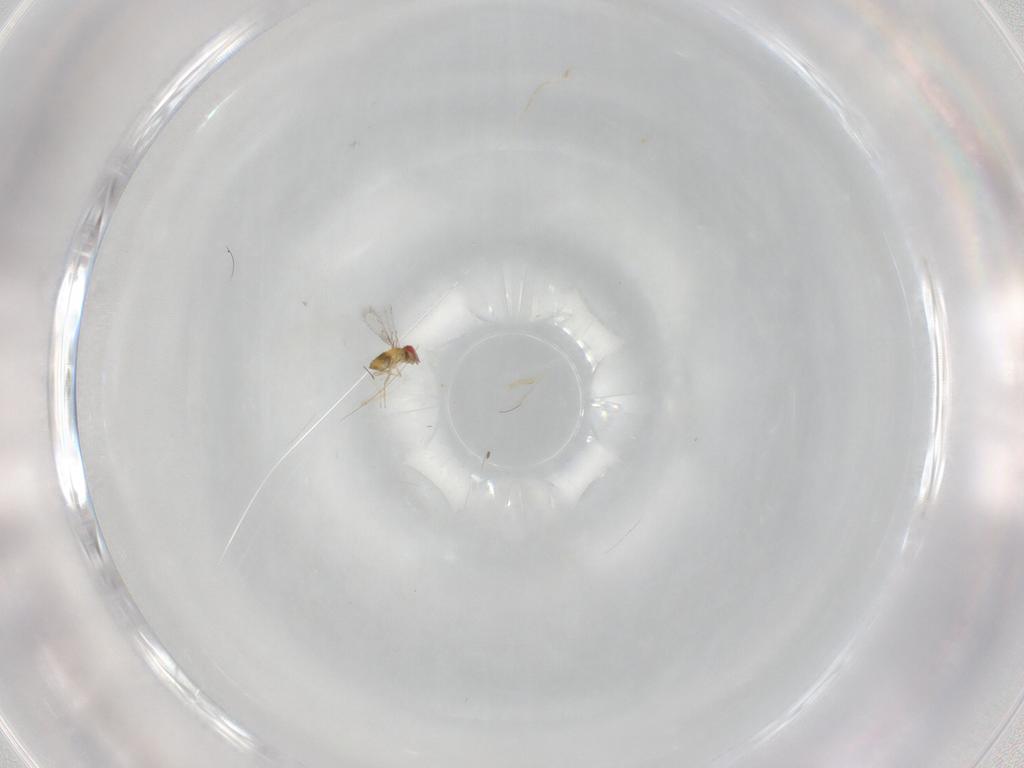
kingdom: Animalia
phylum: Arthropoda
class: Insecta
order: Hymenoptera
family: Trichogrammatidae
